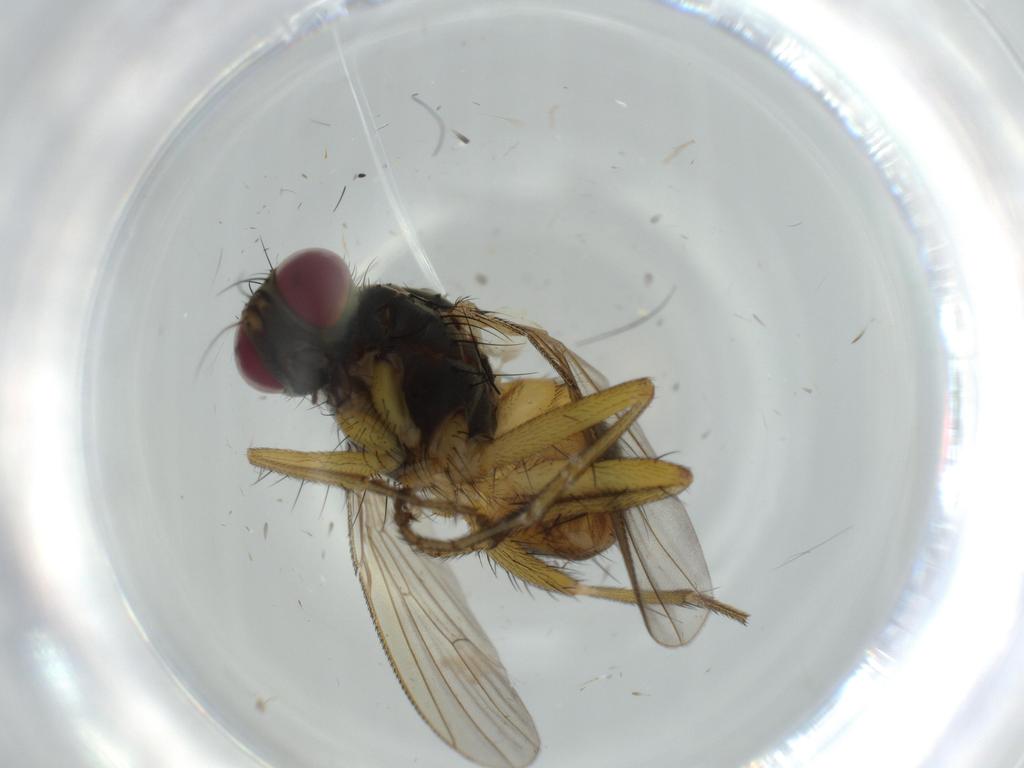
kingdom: Animalia
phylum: Arthropoda
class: Insecta
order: Diptera
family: Muscidae
